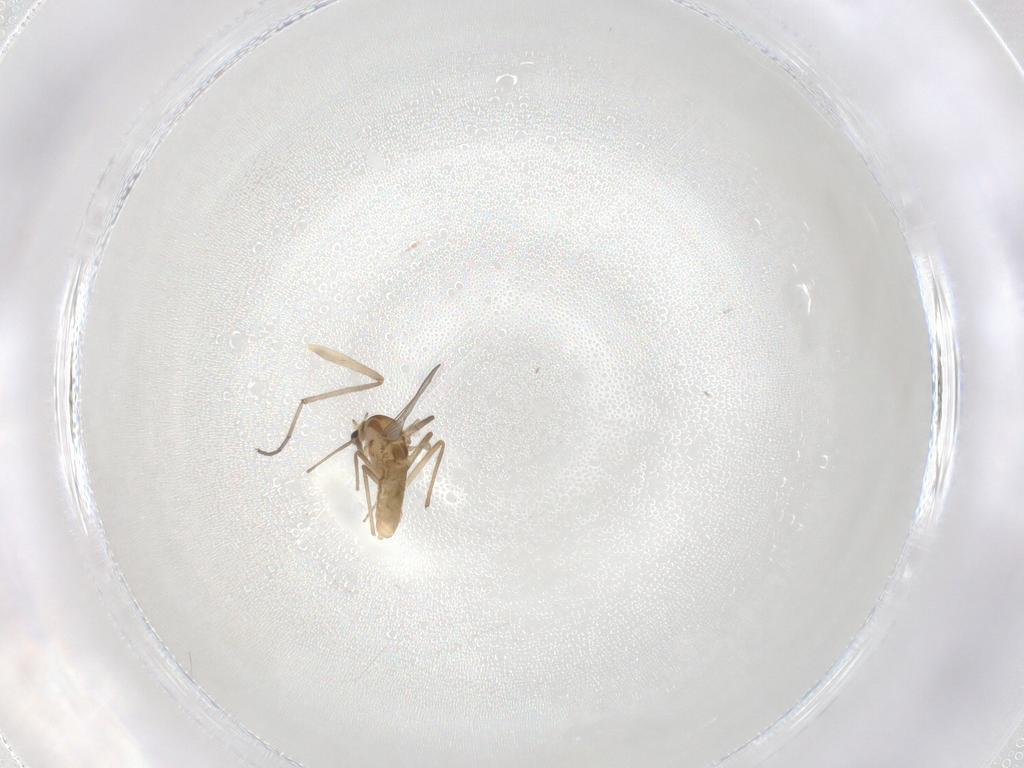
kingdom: Animalia
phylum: Arthropoda
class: Insecta
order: Diptera
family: Chironomidae
